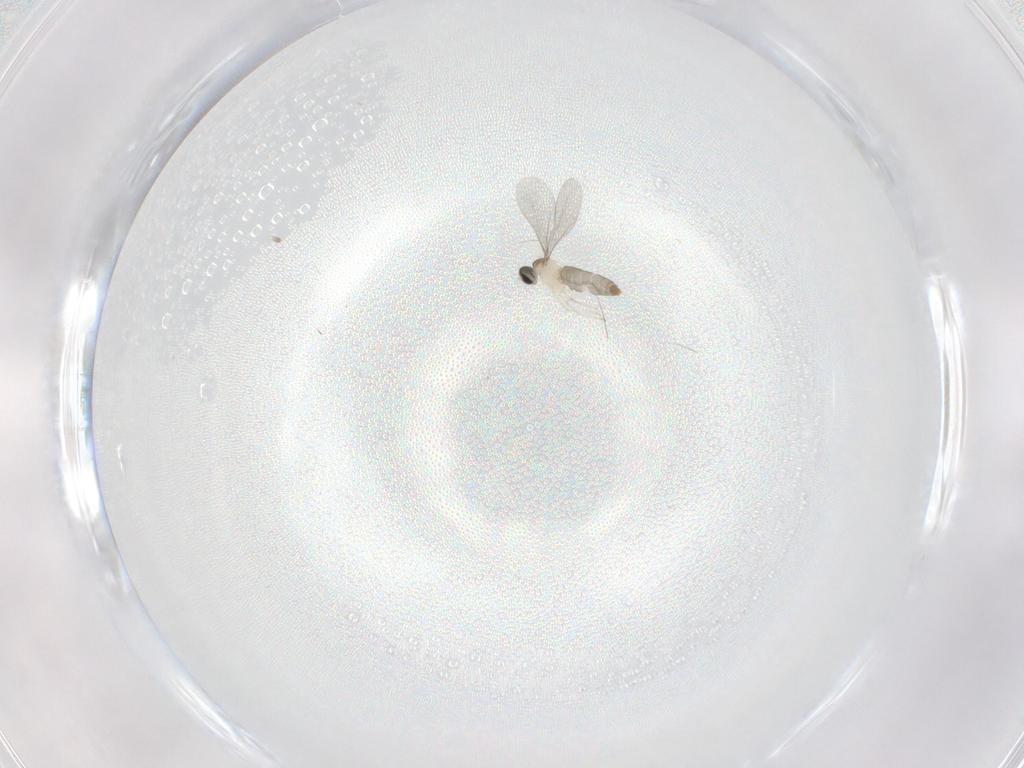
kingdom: Animalia
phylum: Arthropoda
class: Insecta
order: Diptera
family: Cecidomyiidae
